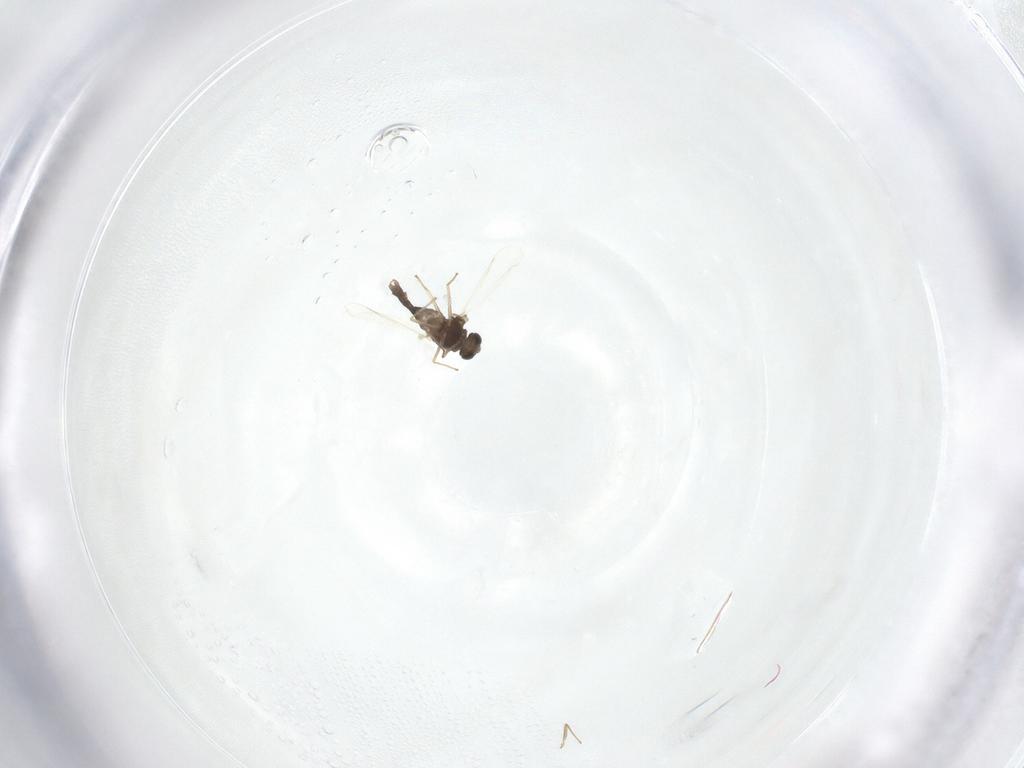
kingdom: Animalia
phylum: Arthropoda
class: Insecta
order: Diptera
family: Chironomidae
